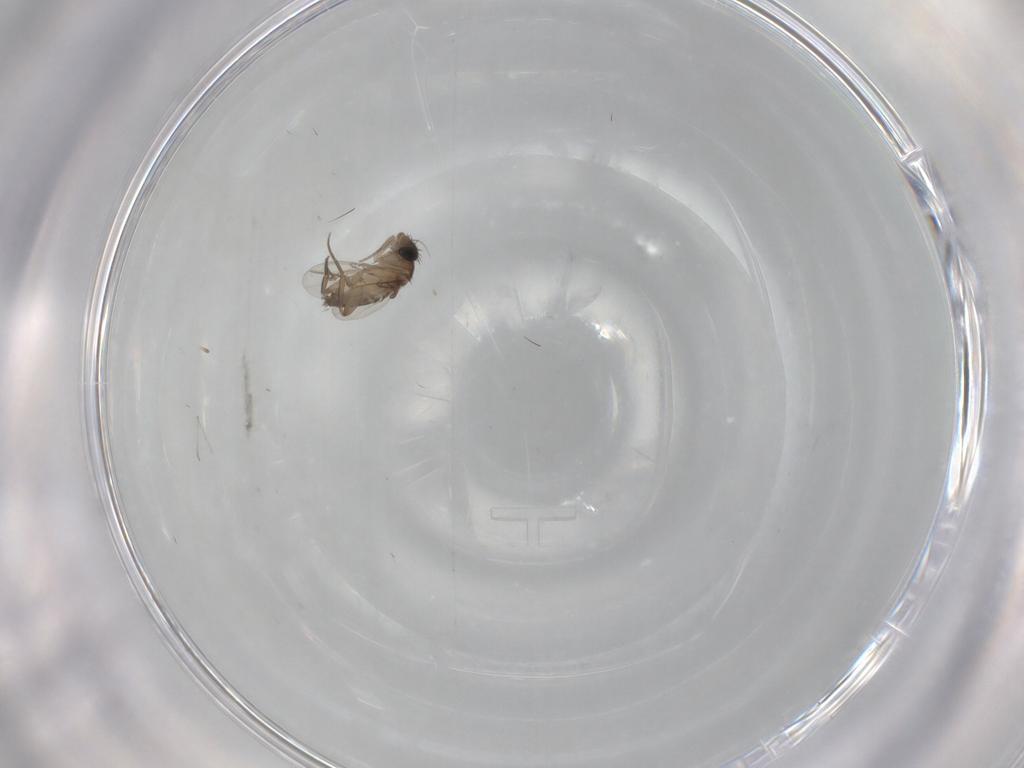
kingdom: Animalia
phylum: Arthropoda
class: Insecta
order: Diptera
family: Phoridae
